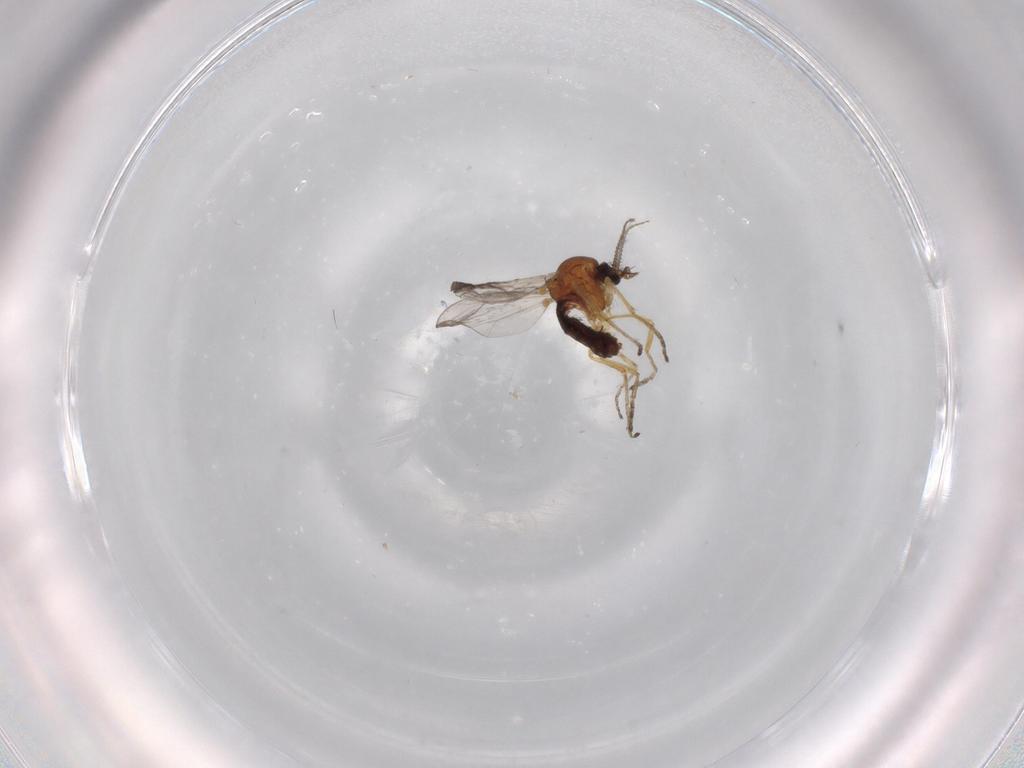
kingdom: Animalia
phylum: Arthropoda
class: Insecta
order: Diptera
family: Ceratopogonidae
